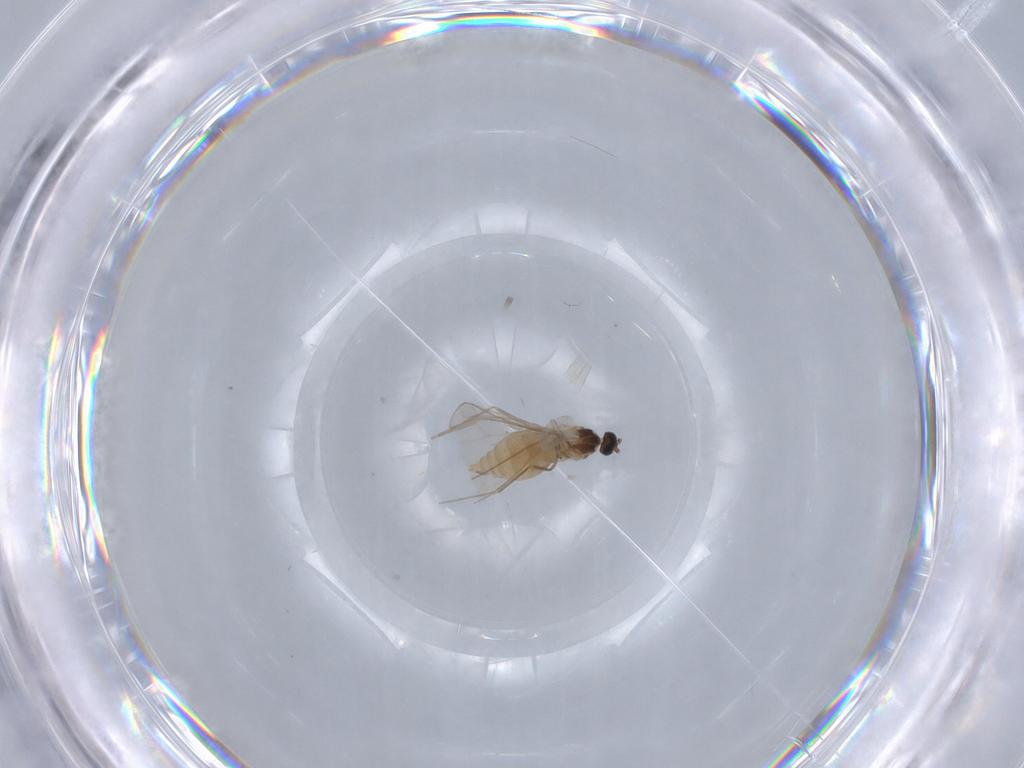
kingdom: Animalia
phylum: Arthropoda
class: Insecta
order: Diptera
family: Cecidomyiidae
